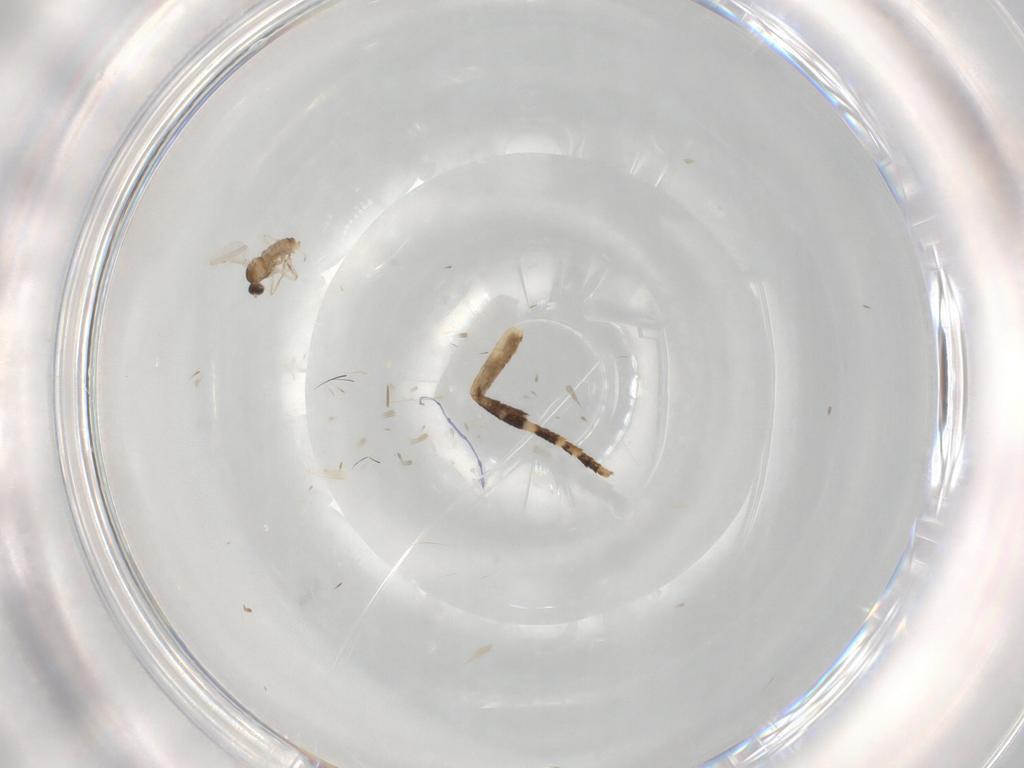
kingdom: Animalia
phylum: Arthropoda
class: Insecta
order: Diptera
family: Cecidomyiidae
